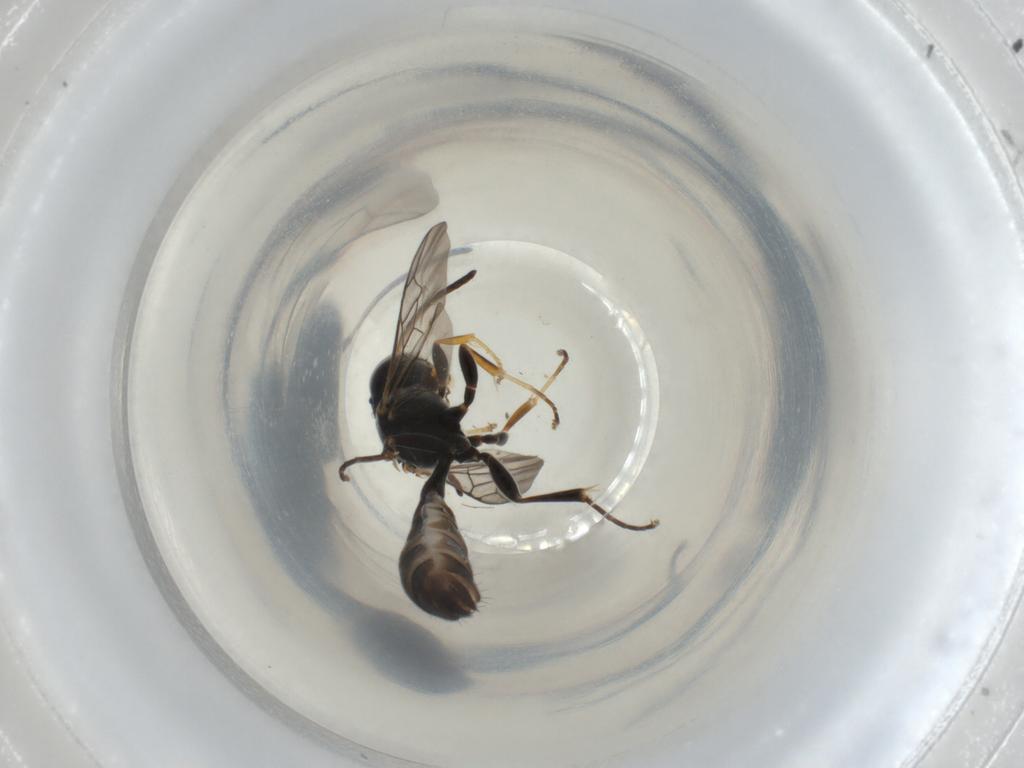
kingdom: Animalia
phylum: Arthropoda
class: Insecta
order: Hymenoptera
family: Crabronidae
